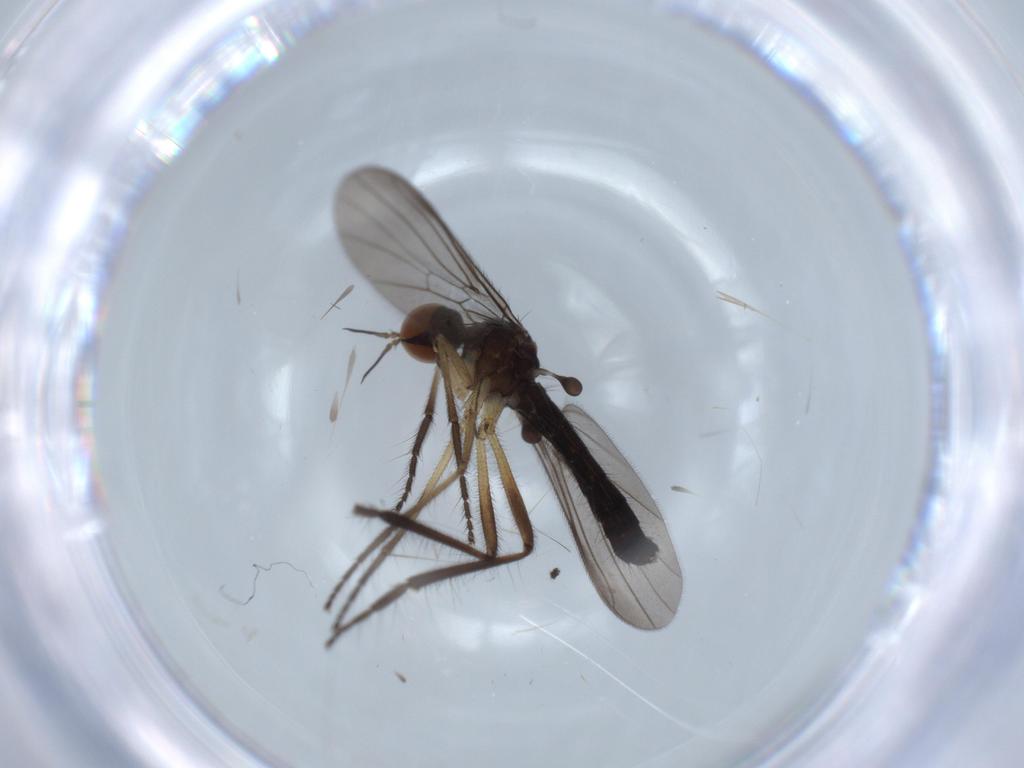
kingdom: Animalia
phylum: Arthropoda
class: Insecta
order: Diptera
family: Empididae
